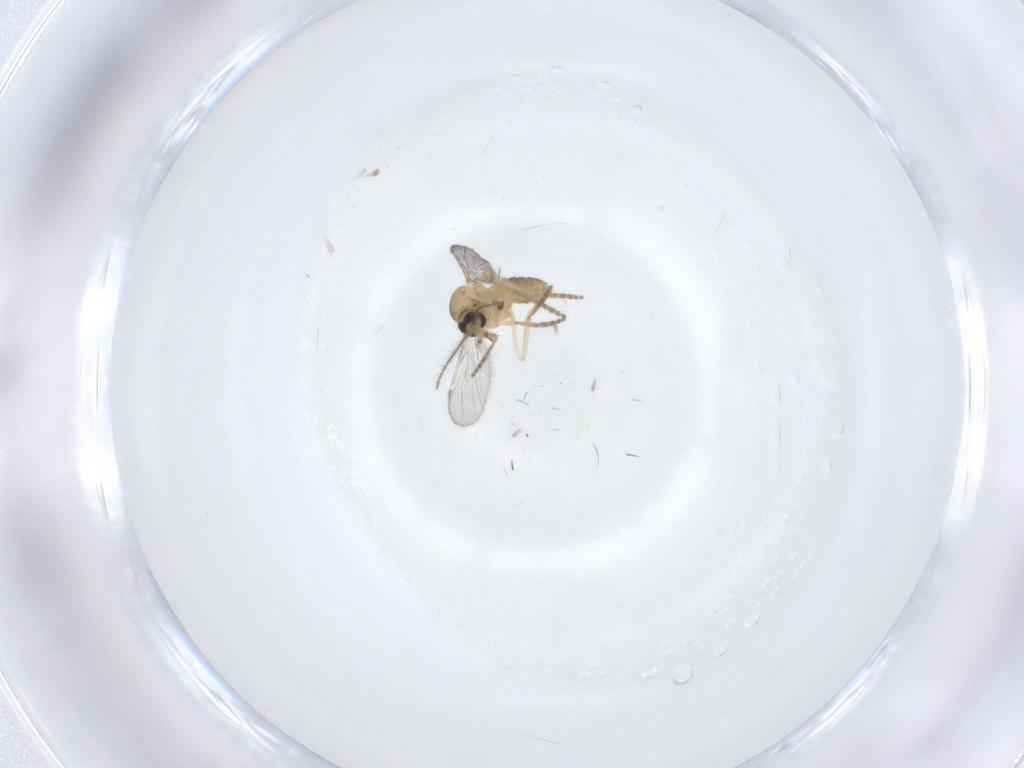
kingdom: Animalia
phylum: Arthropoda
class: Insecta
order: Diptera
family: Ceratopogonidae
